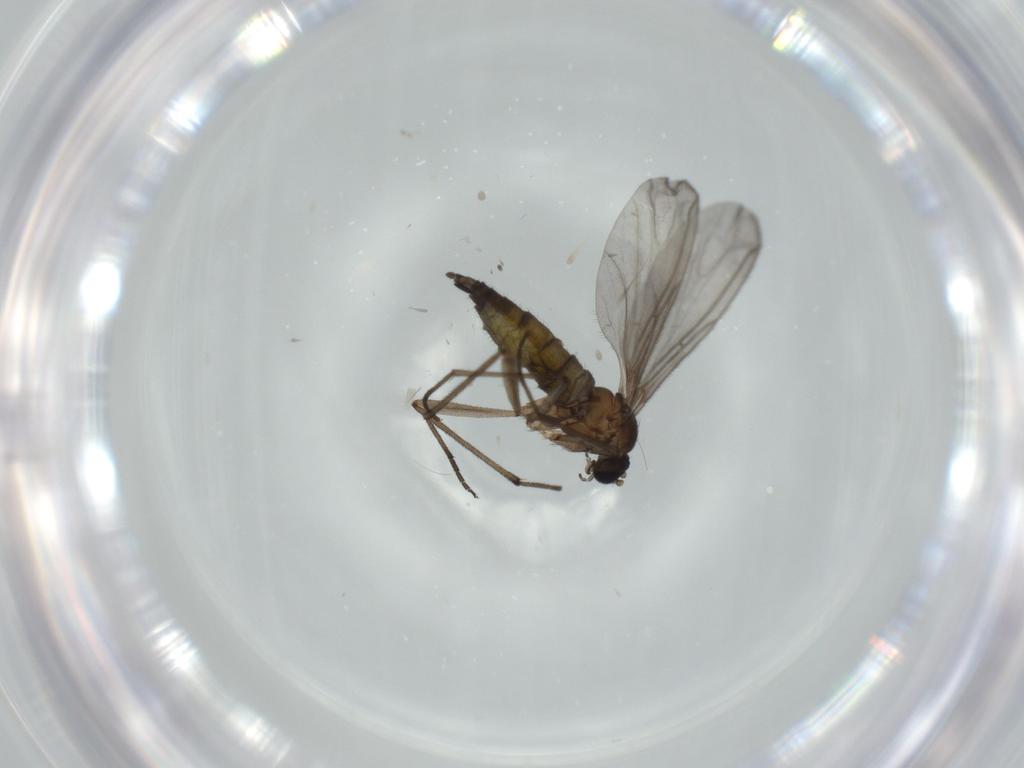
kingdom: Animalia
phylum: Arthropoda
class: Insecta
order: Diptera
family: Sciaridae
